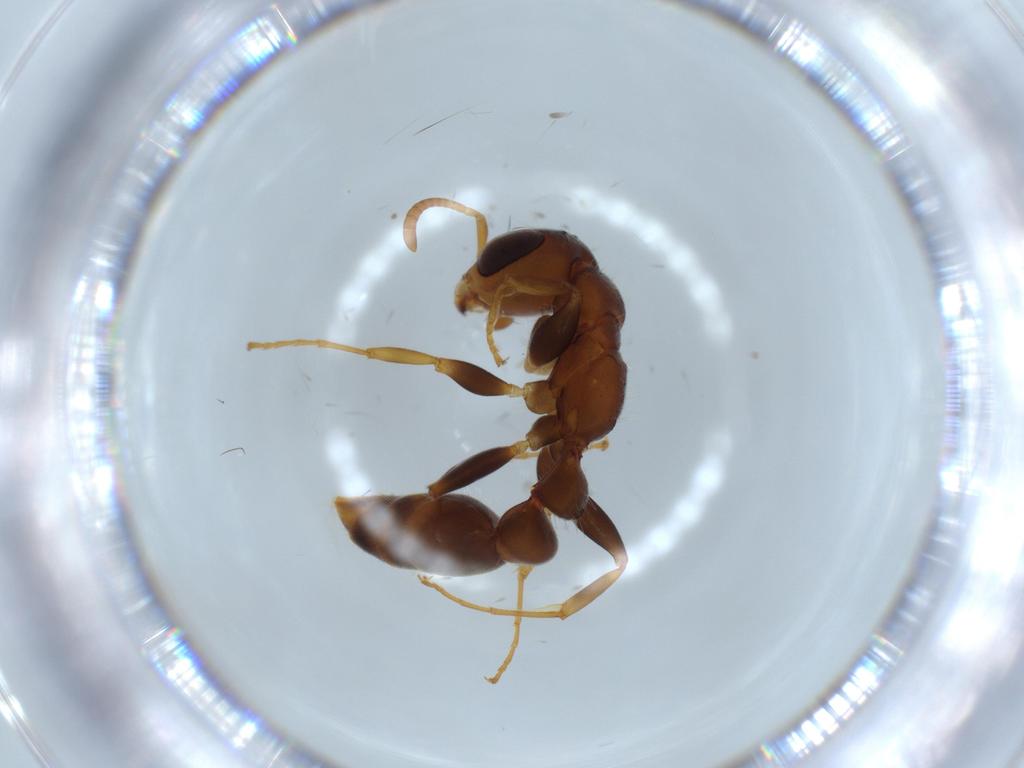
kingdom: Animalia
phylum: Arthropoda
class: Insecta
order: Hymenoptera
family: Formicidae
